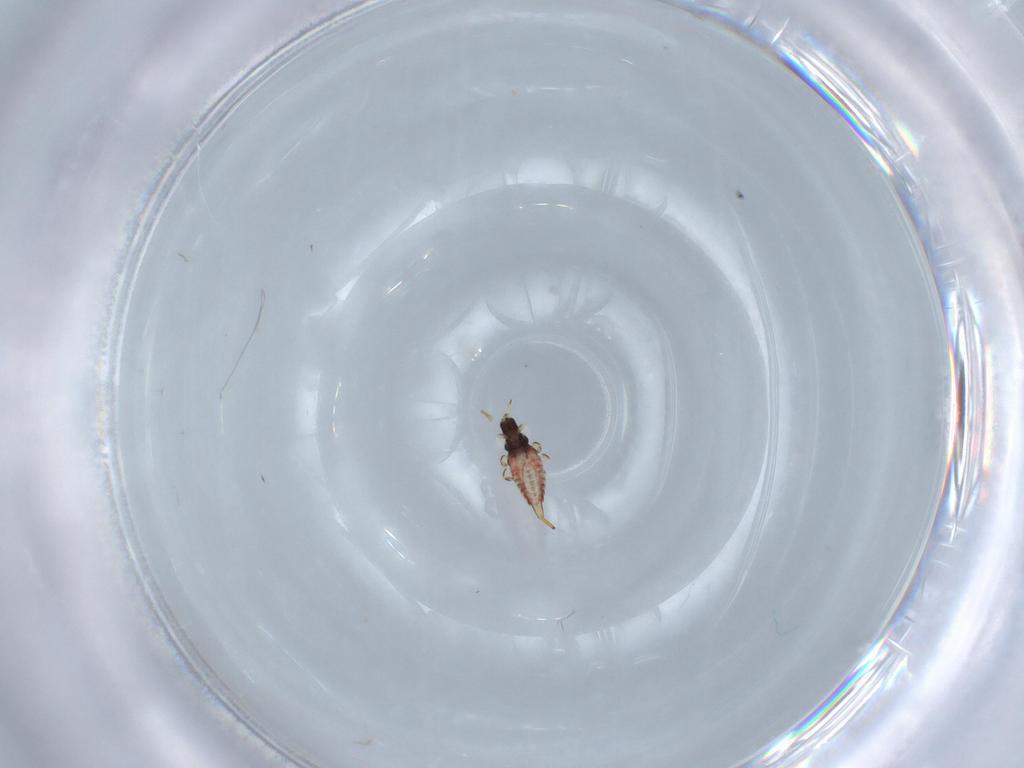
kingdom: Animalia
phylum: Arthropoda
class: Insecta
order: Thysanoptera
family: Phlaeothripidae
